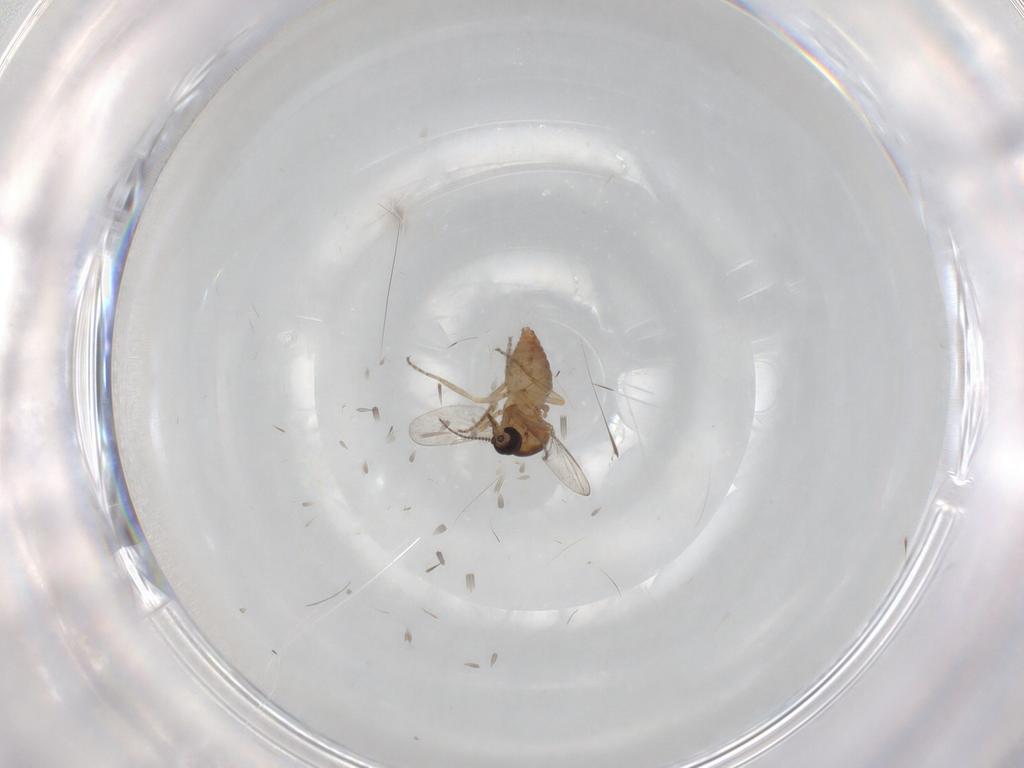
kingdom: Animalia
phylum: Arthropoda
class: Insecta
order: Diptera
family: Ceratopogonidae
